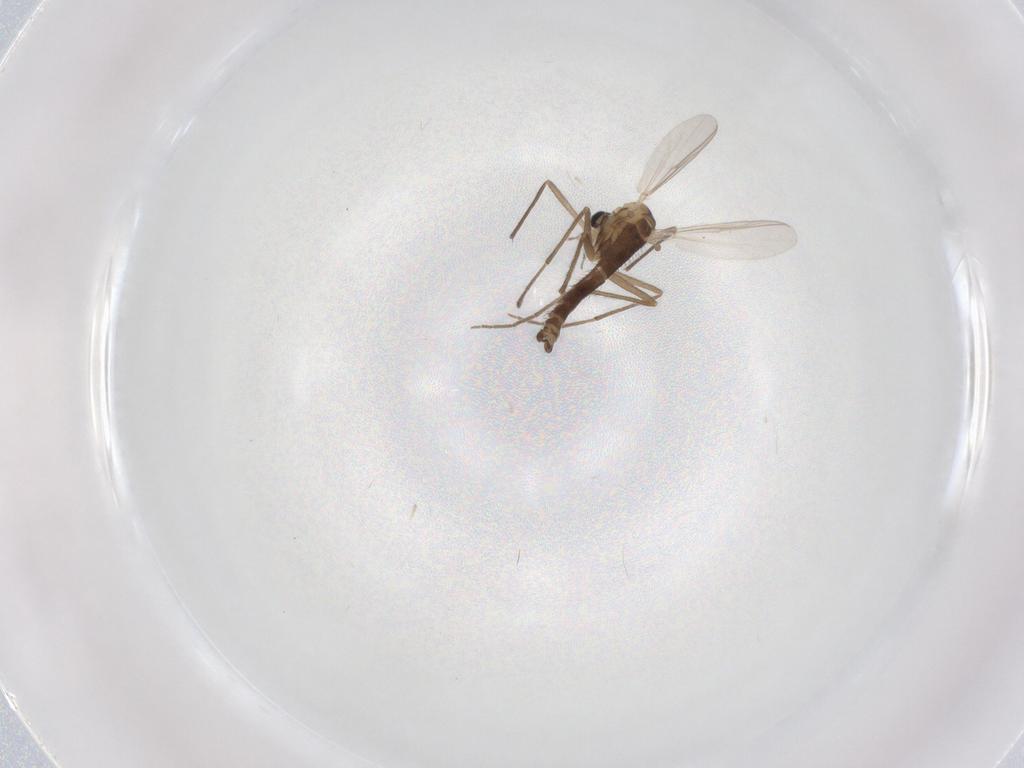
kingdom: Animalia
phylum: Arthropoda
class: Insecta
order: Diptera
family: Chironomidae
